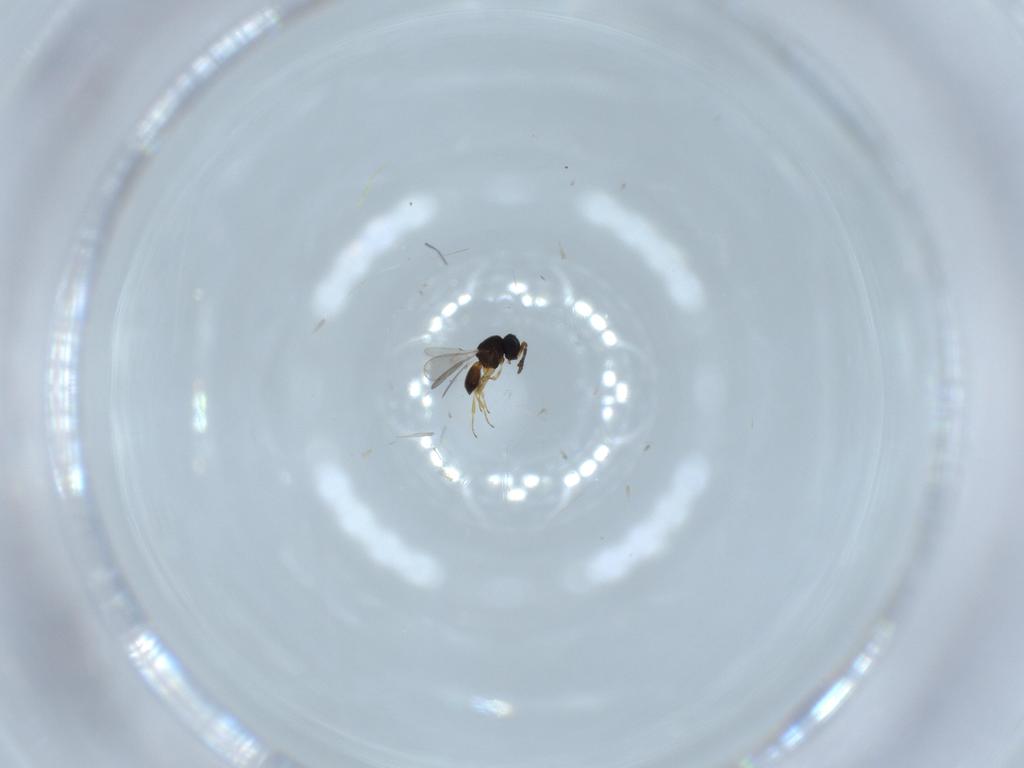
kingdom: Animalia
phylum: Arthropoda
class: Insecta
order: Hymenoptera
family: Scelionidae
